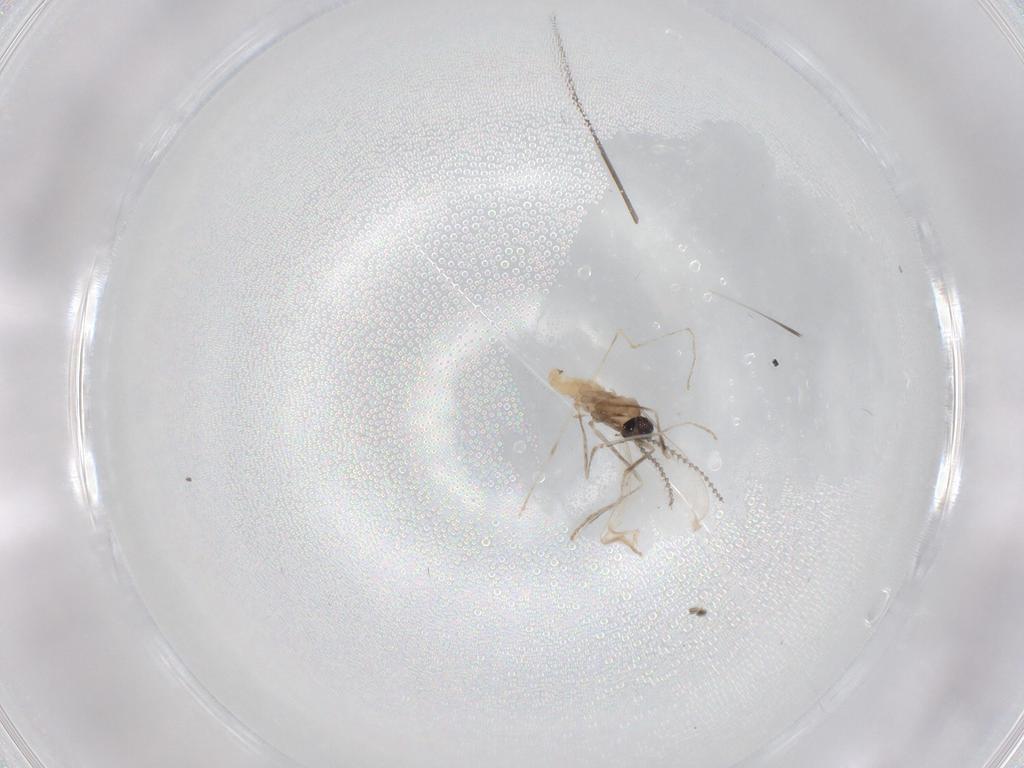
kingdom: Animalia
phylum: Arthropoda
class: Insecta
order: Diptera
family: Cecidomyiidae
